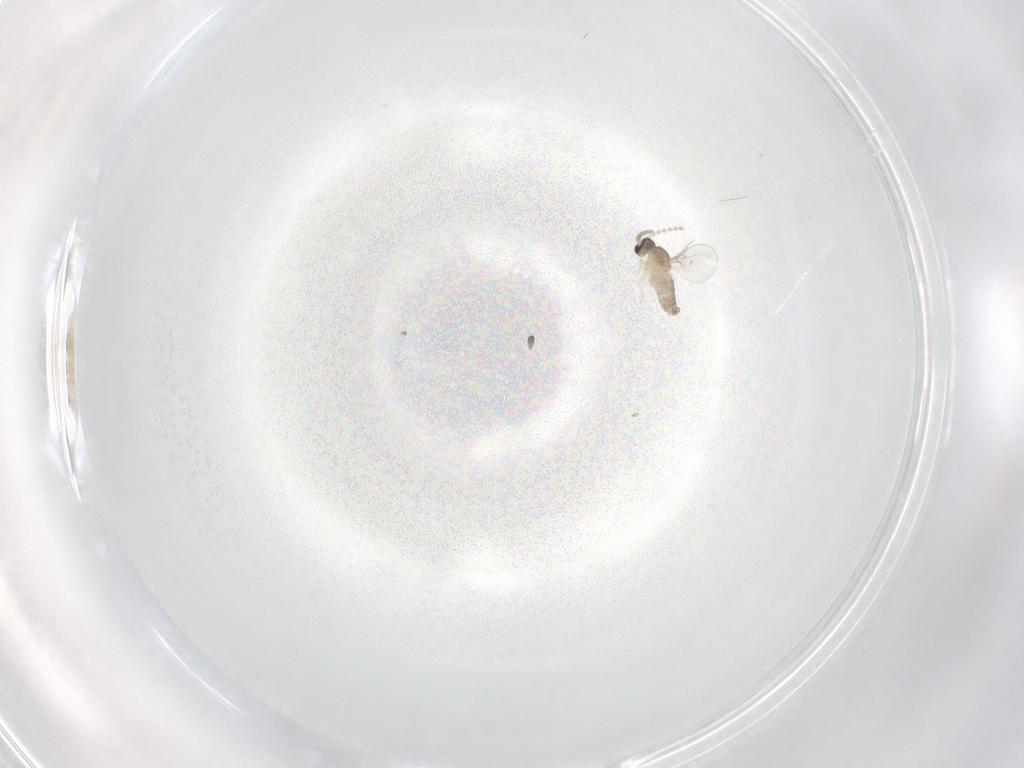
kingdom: Animalia
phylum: Arthropoda
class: Insecta
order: Diptera
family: Cecidomyiidae
